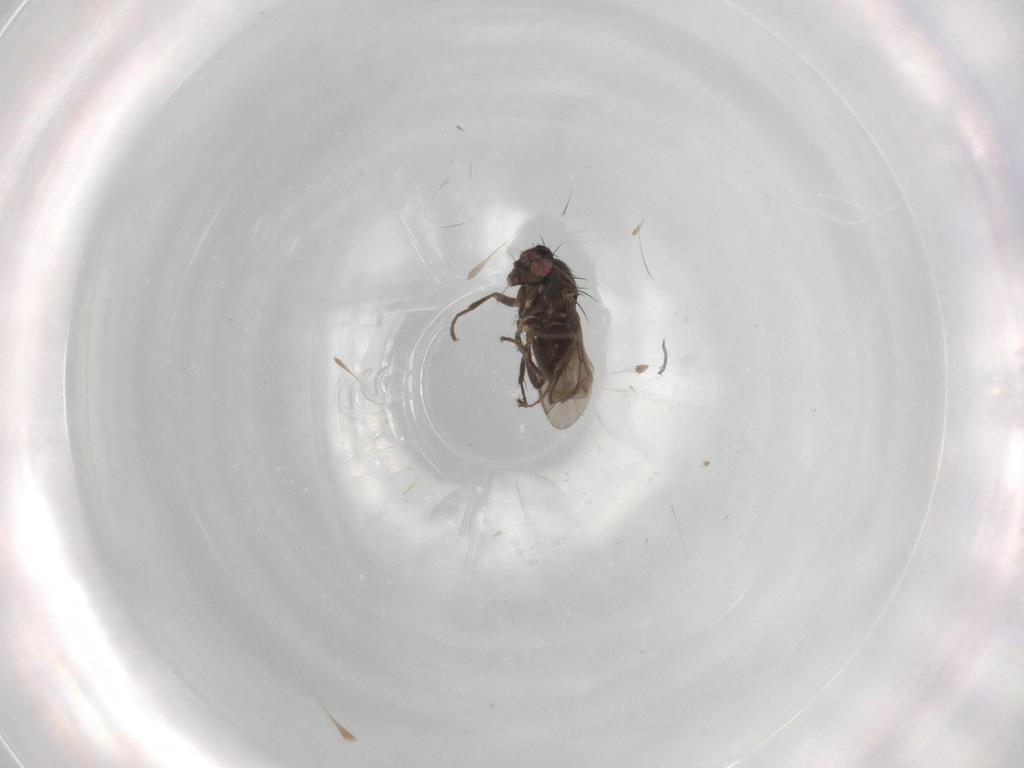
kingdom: Animalia
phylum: Arthropoda
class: Insecta
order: Diptera
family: Sphaeroceridae
